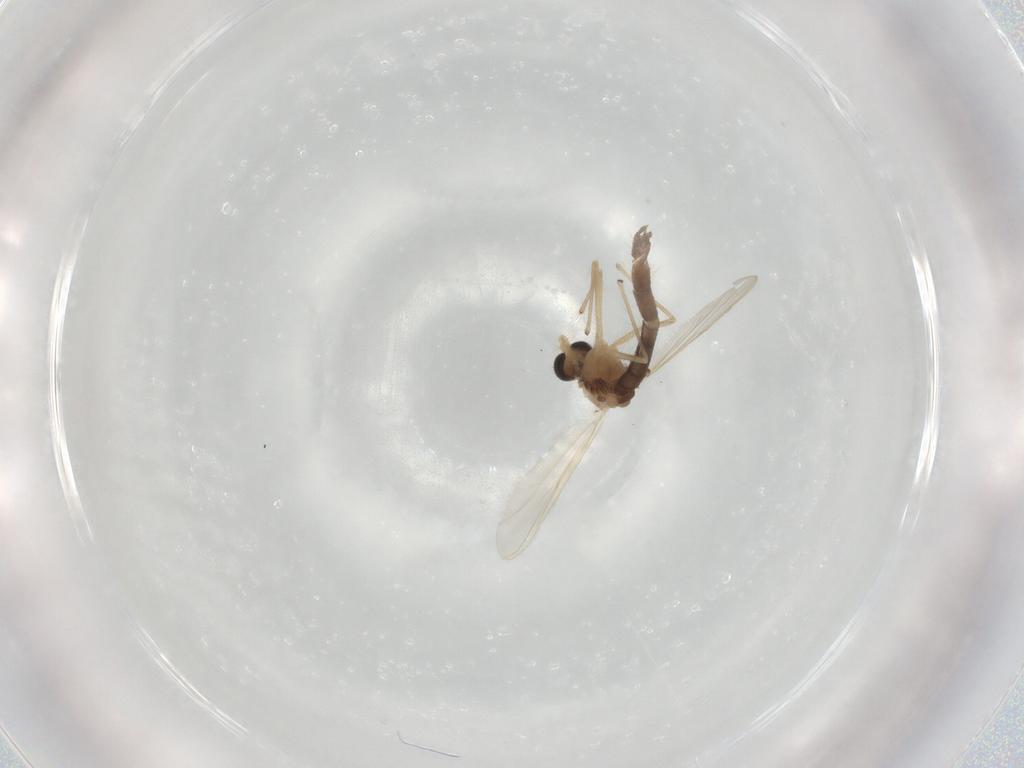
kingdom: Animalia
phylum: Arthropoda
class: Insecta
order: Diptera
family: Chironomidae
